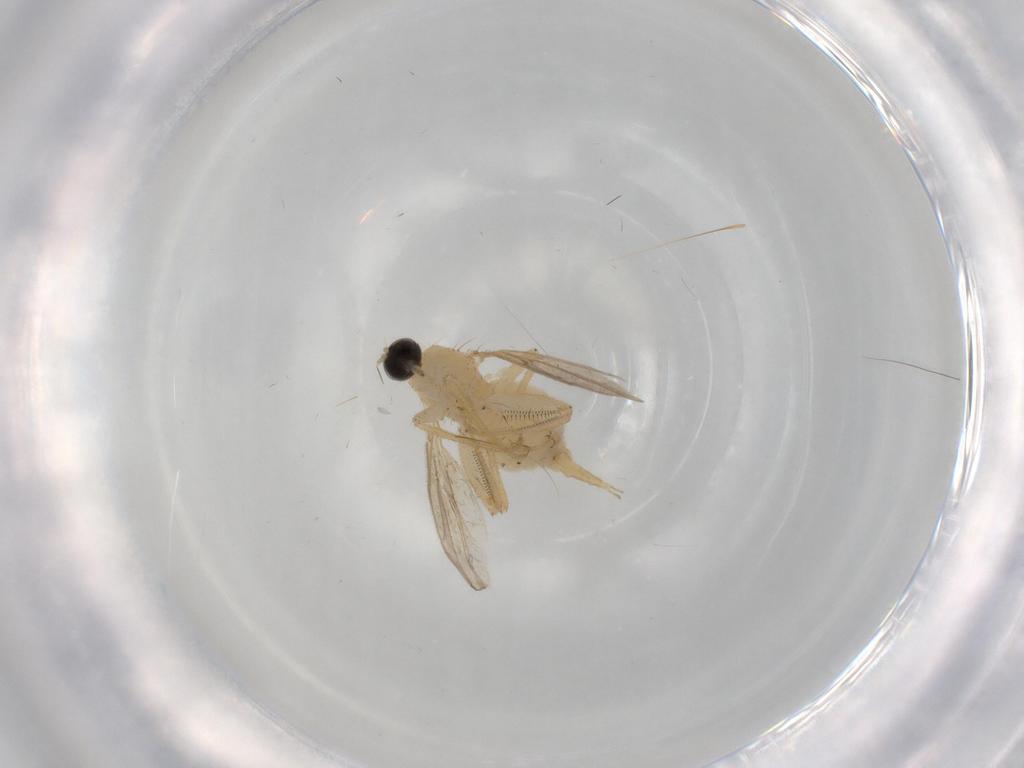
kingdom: Animalia
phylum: Arthropoda
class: Insecta
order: Diptera
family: Hybotidae
